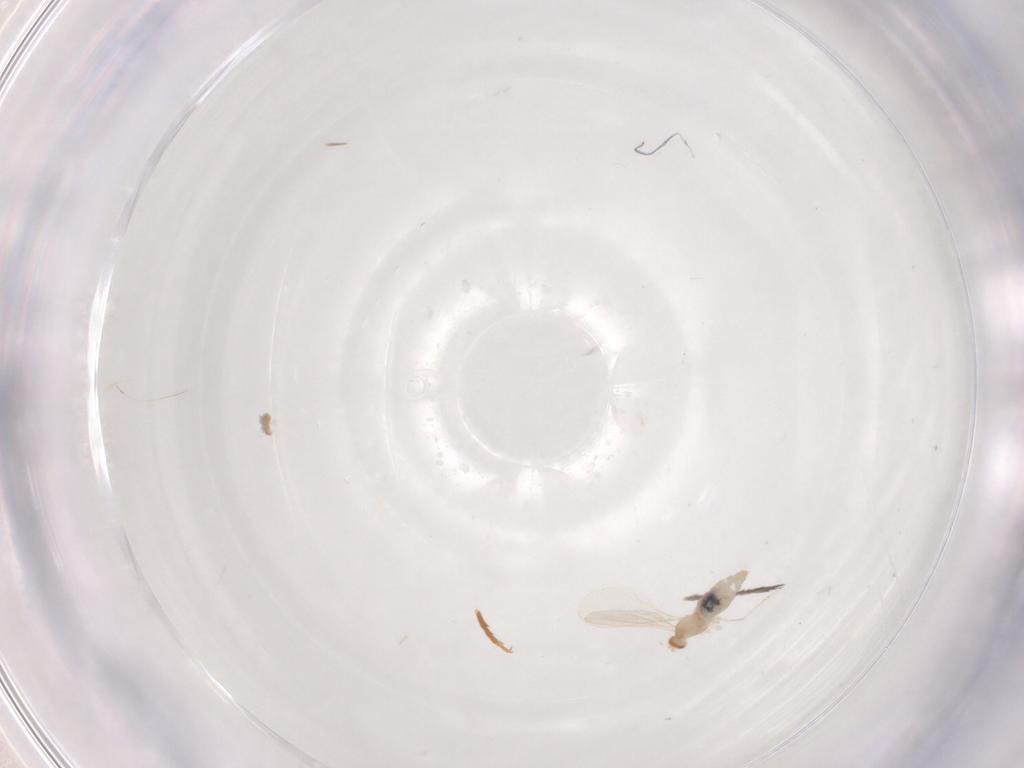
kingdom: Animalia
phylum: Arthropoda
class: Insecta
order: Diptera
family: Cecidomyiidae
